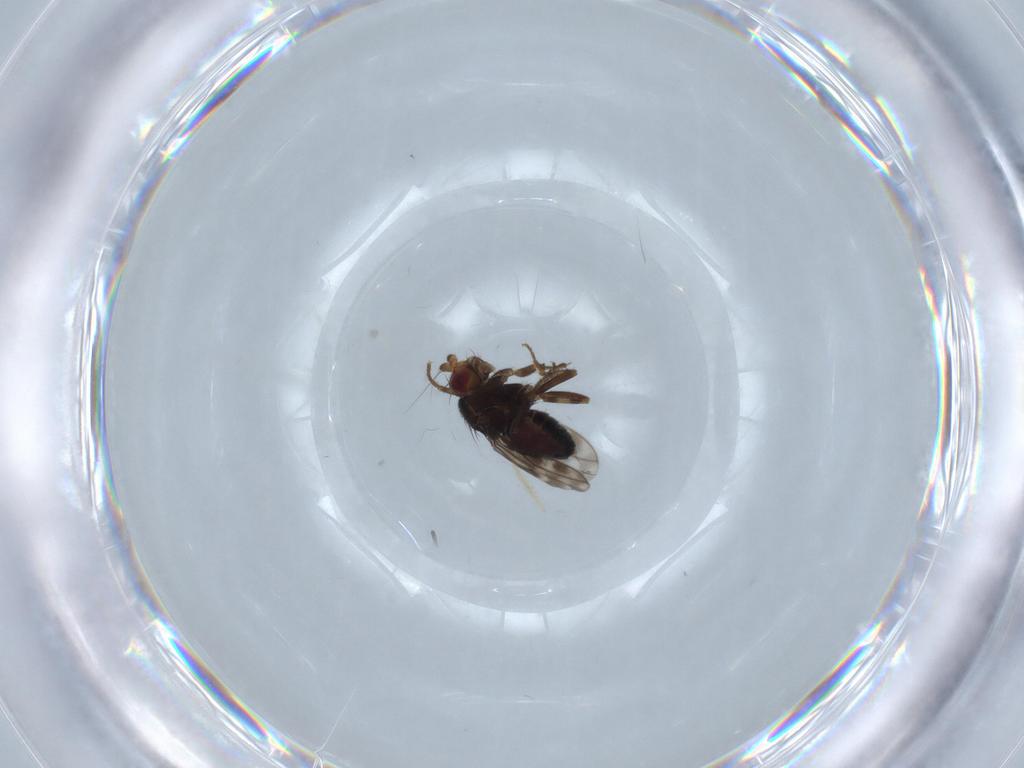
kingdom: Animalia
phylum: Arthropoda
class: Insecta
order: Diptera
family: Sphaeroceridae
